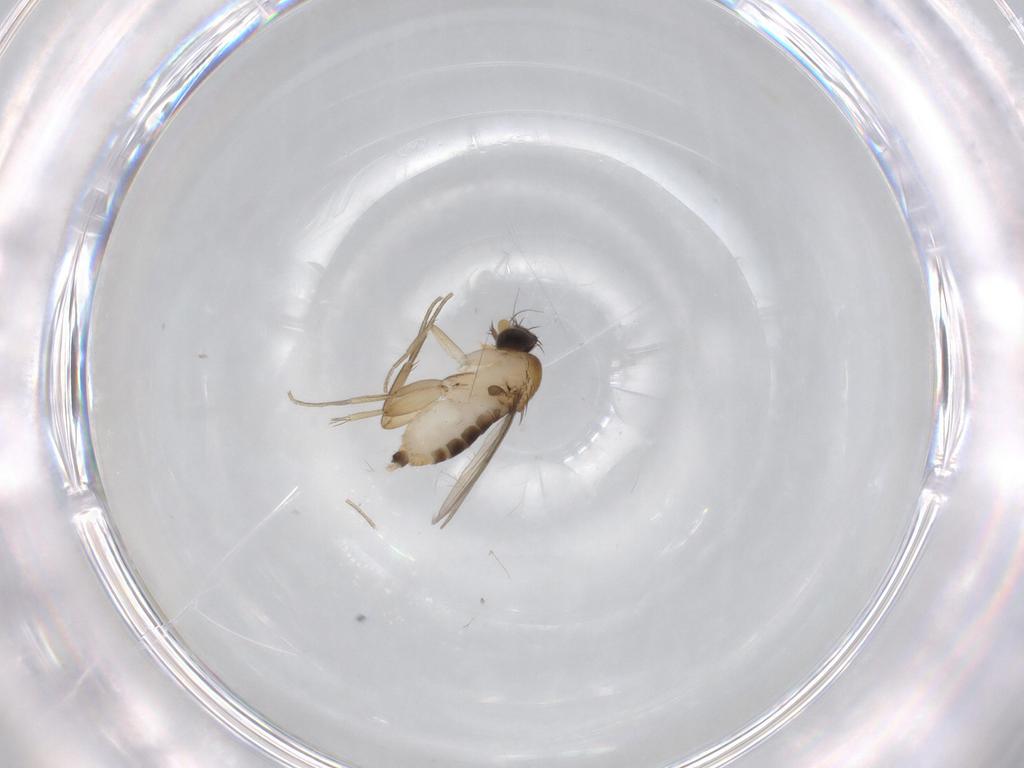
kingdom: Animalia
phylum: Arthropoda
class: Insecta
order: Diptera
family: Phoridae
